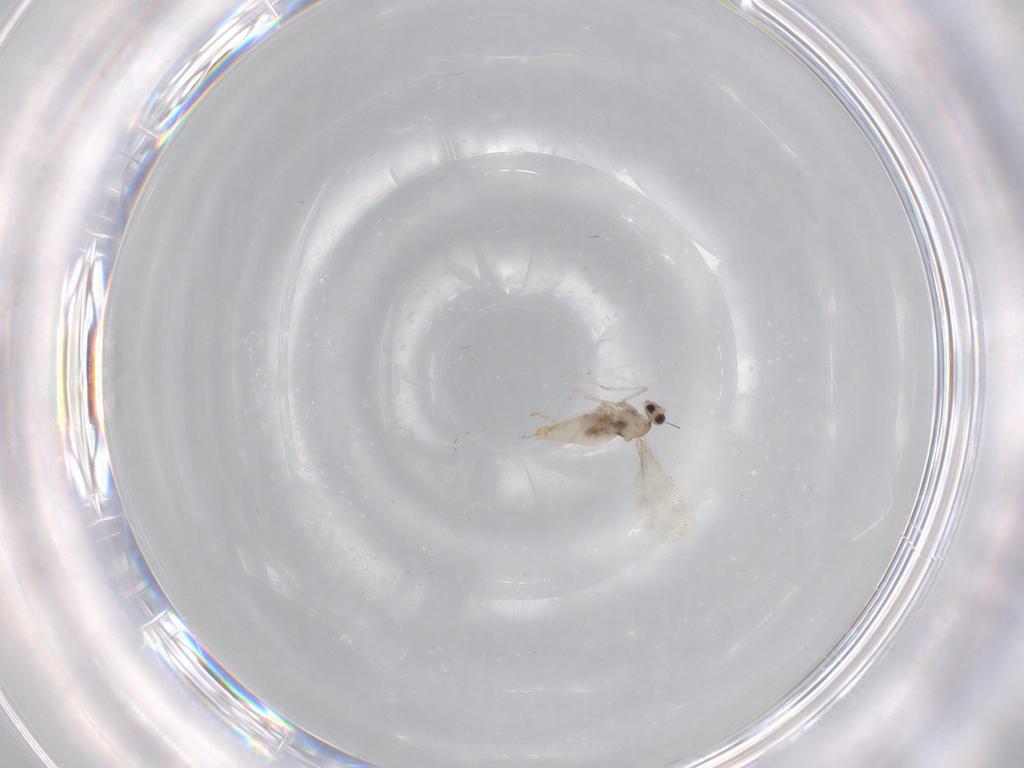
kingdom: Animalia
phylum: Arthropoda
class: Insecta
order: Diptera
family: Cecidomyiidae
